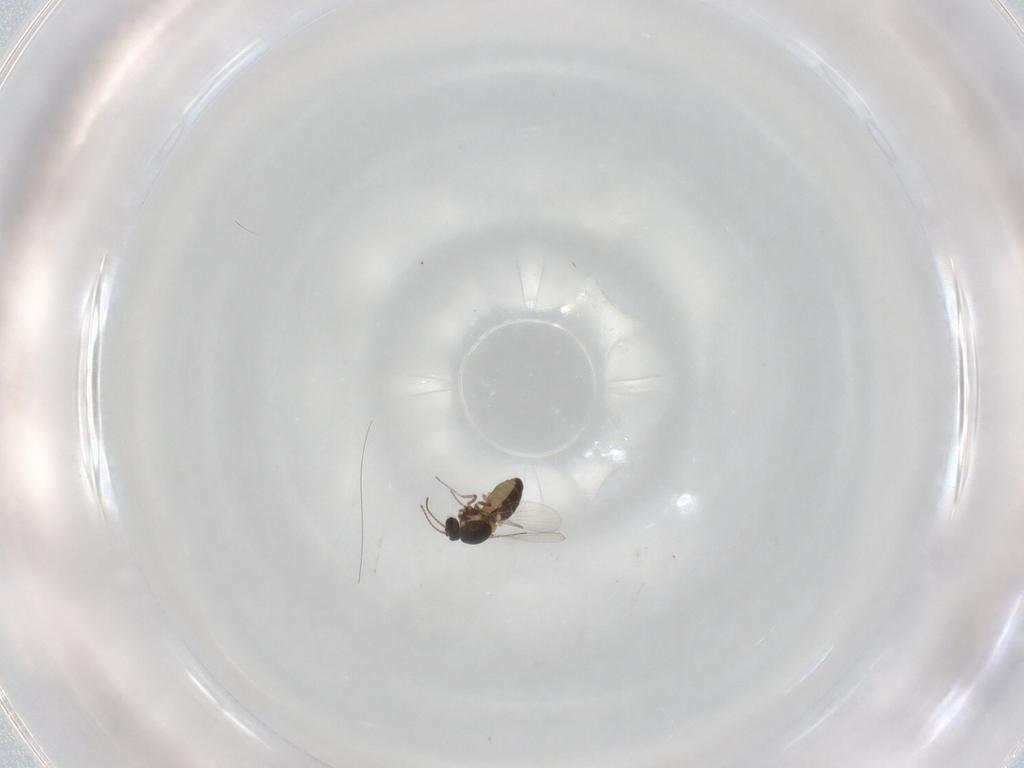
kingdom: Animalia
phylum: Arthropoda
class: Insecta
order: Diptera
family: Ceratopogonidae
